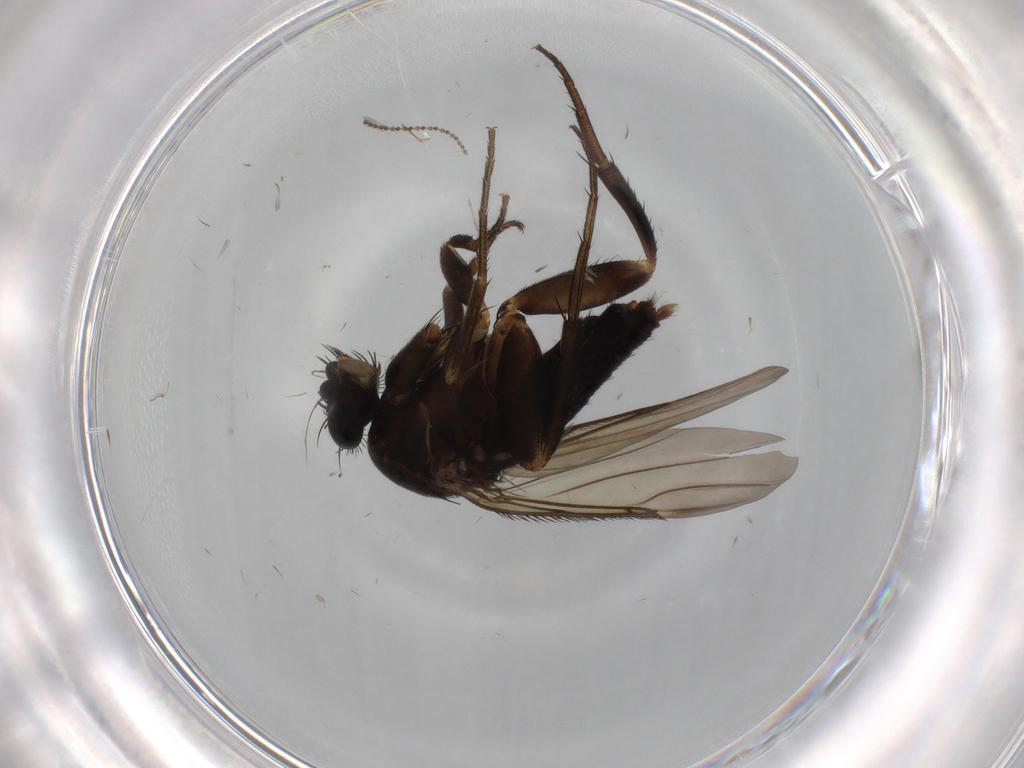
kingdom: Animalia
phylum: Arthropoda
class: Insecta
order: Diptera
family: Phoridae
